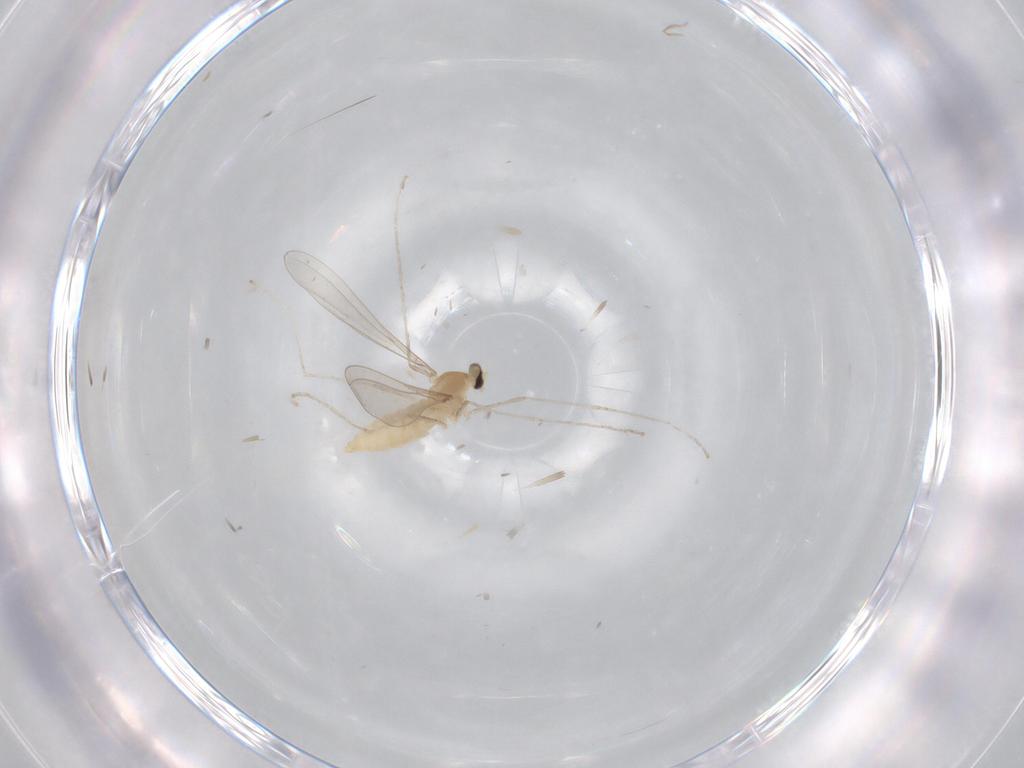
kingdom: Animalia
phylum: Arthropoda
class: Insecta
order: Diptera
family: Cecidomyiidae
